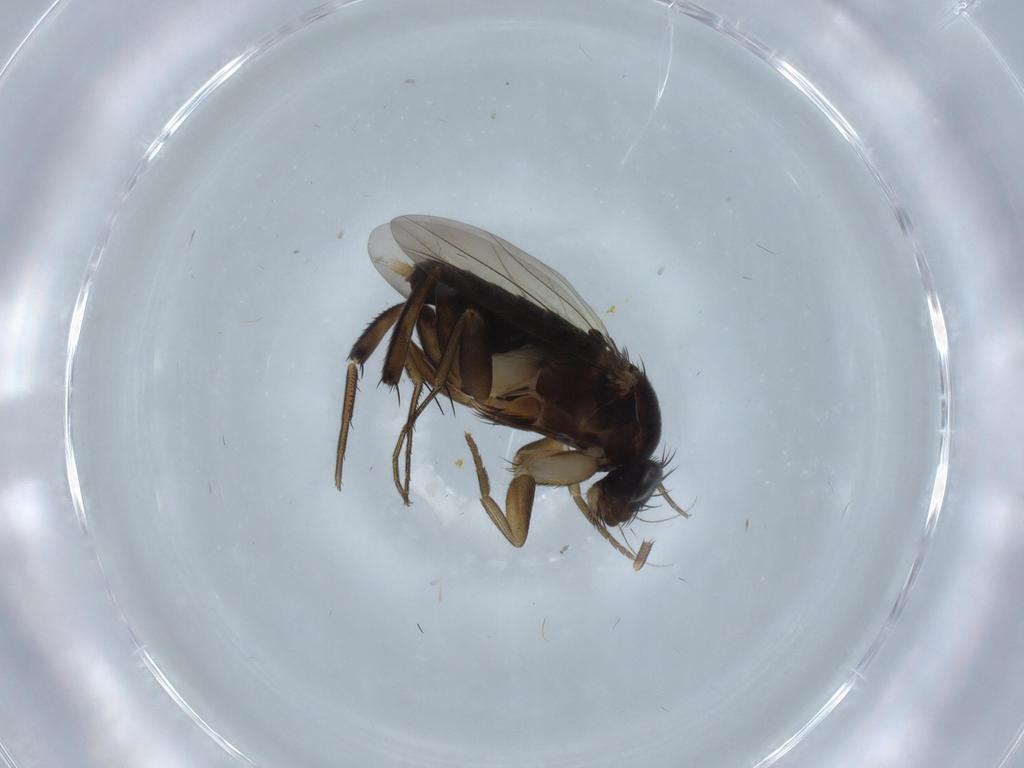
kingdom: Animalia
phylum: Arthropoda
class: Insecta
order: Diptera
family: Phoridae
